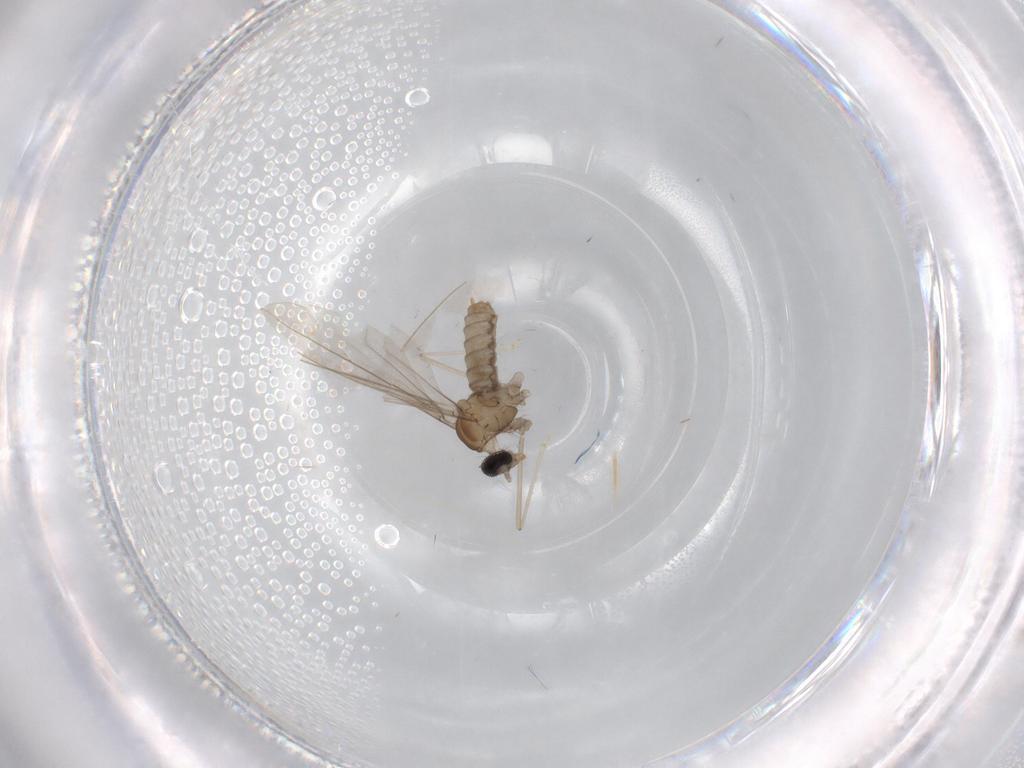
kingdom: Animalia
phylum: Arthropoda
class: Insecta
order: Diptera
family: Cecidomyiidae
